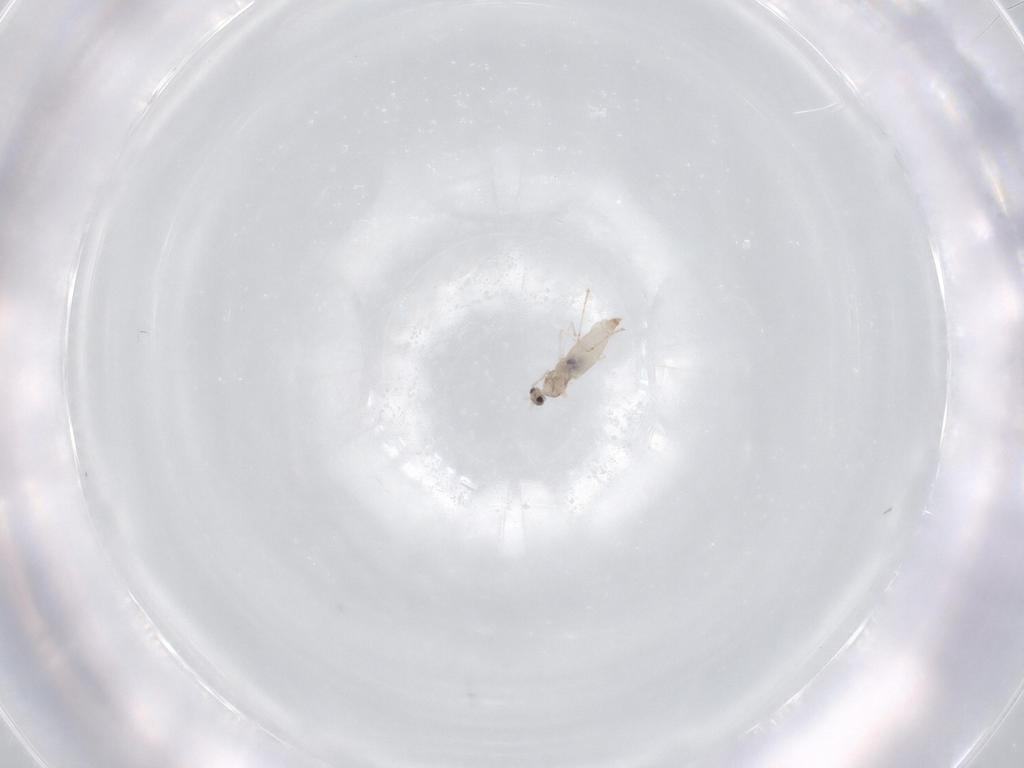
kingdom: Animalia
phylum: Arthropoda
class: Insecta
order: Diptera
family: Cecidomyiidae
